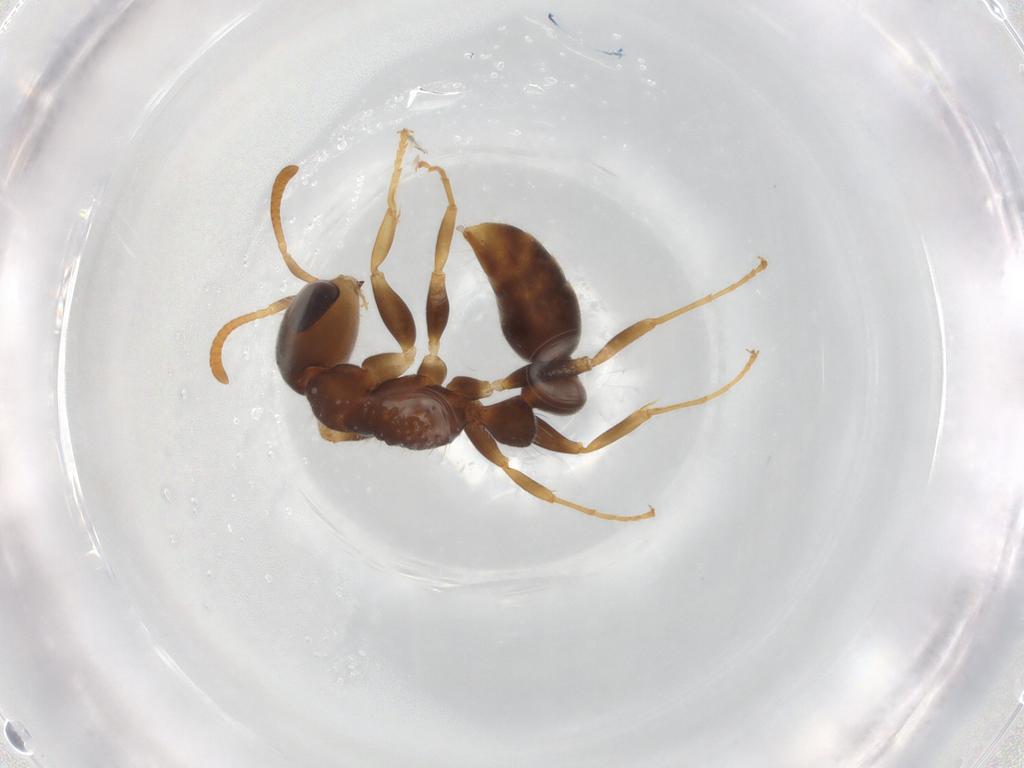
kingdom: Animalia
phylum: Arthropoda
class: Insecta
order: Hymenoptera
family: Formicidae
